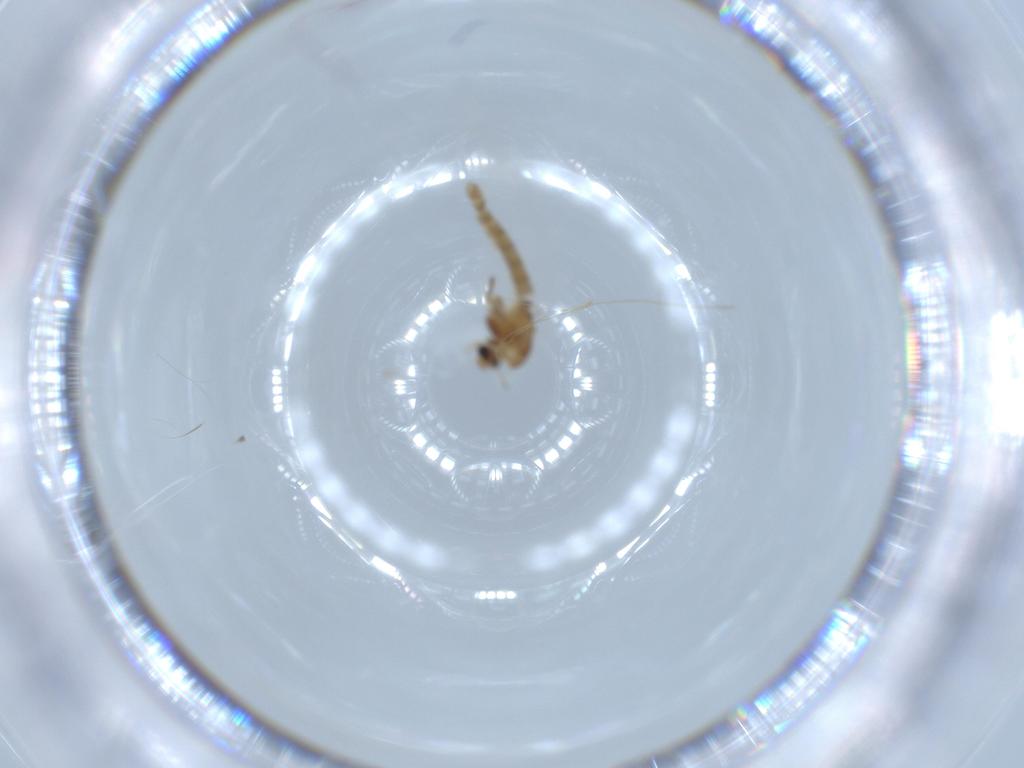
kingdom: Animalia
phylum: Arthropoda
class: Insecta
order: Diptera
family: Chironomidae
